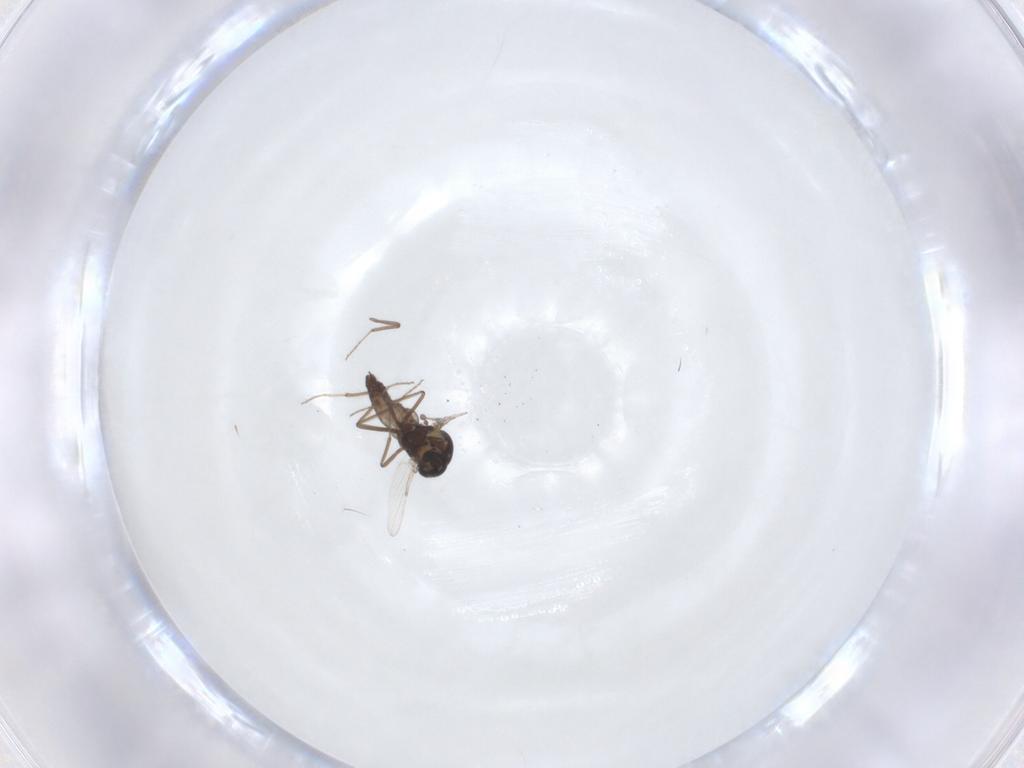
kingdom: Animalia
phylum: Arthropoda
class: Insecta
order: Diptera
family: Ceratopogonidae
